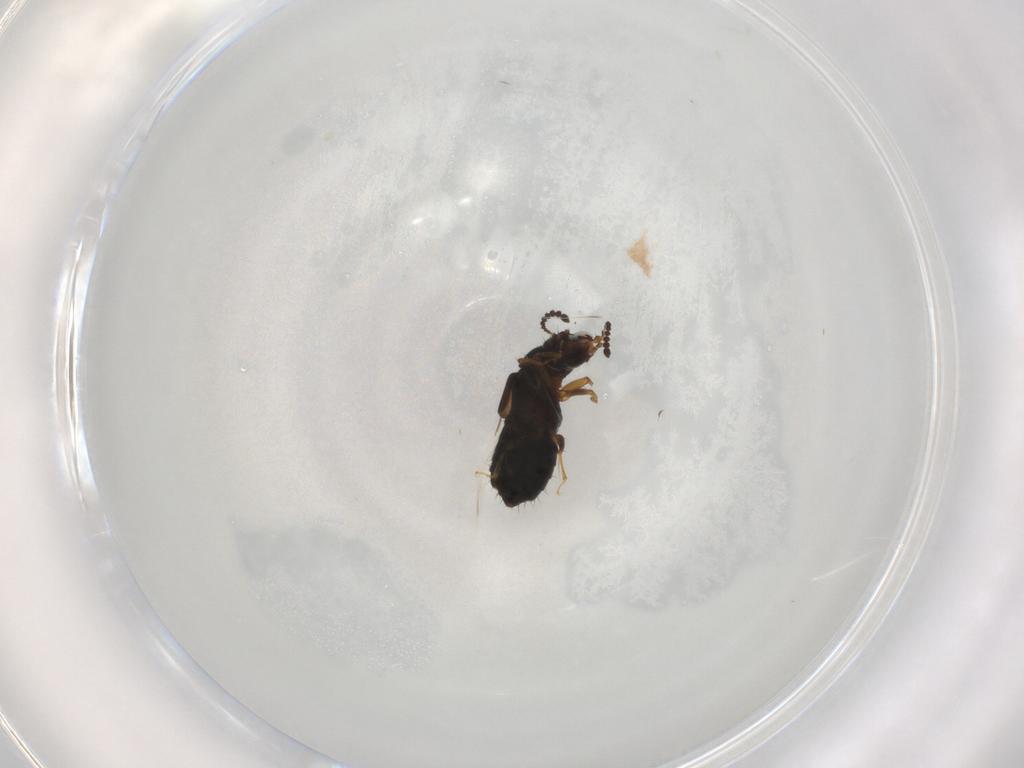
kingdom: Animalia
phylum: Arthropoda
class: Insecta
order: Coleoptera
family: Staphylinidae
